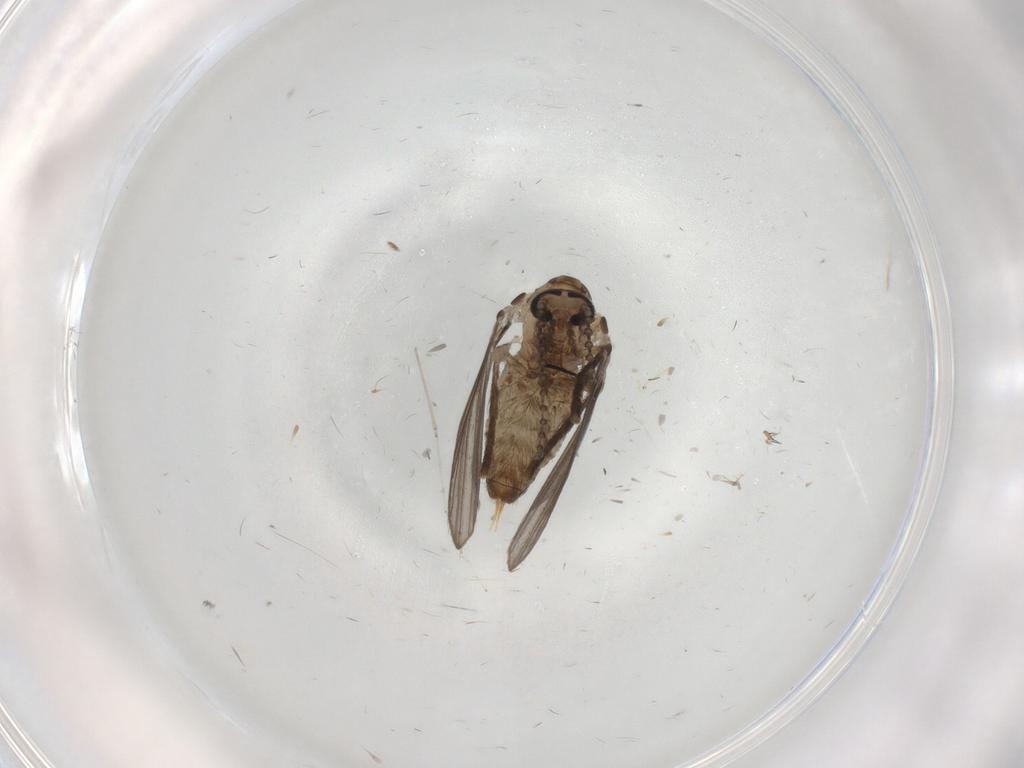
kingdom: Animalia
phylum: Arthropoda
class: Insecta
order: Diptera
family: Psychodidae
